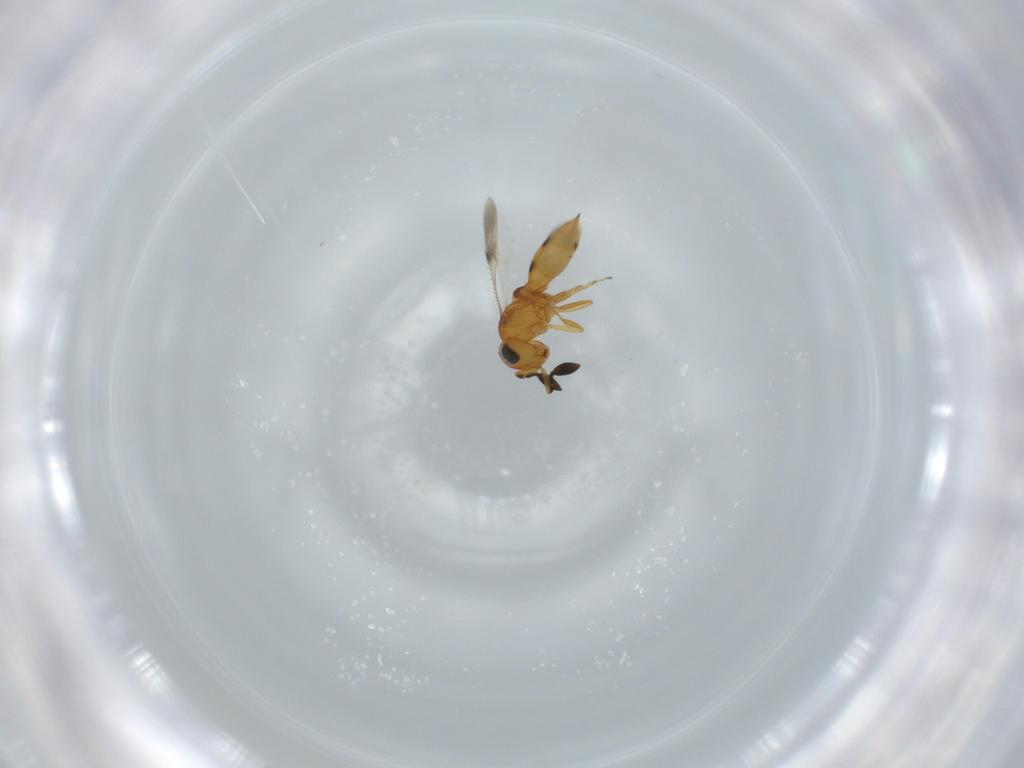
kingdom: Animalia
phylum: Arthropoda
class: Insecta
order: Hymenoptera
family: Scelionidae
